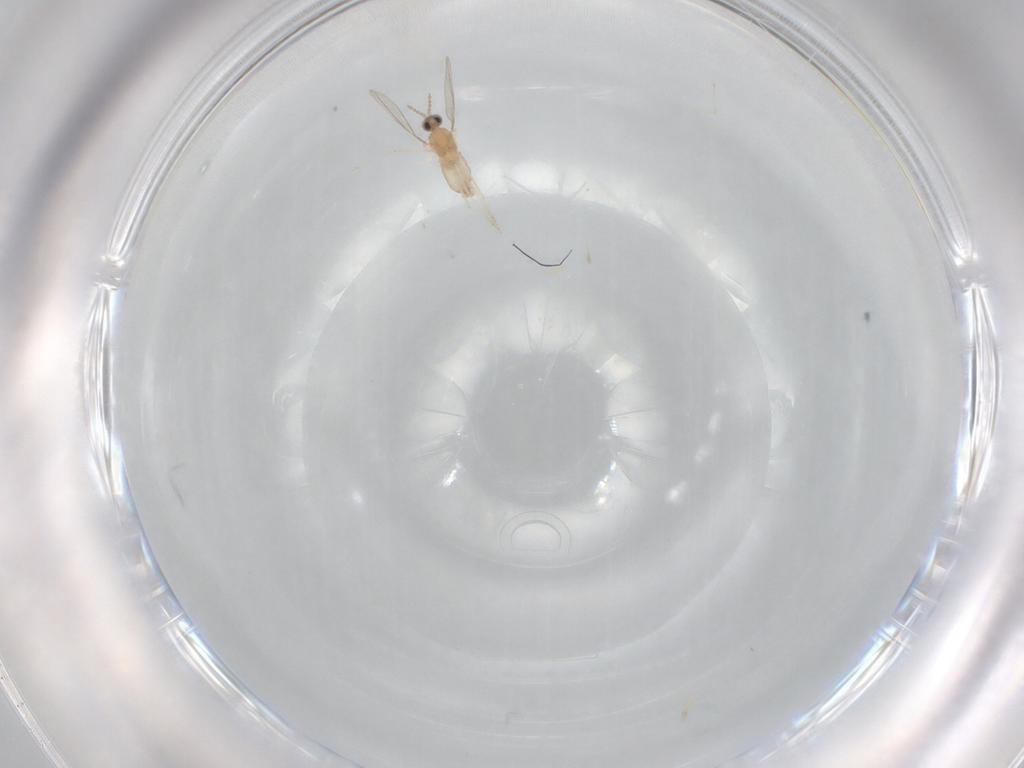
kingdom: Animalia
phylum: Arthropoda
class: Insecta
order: Diptera
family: Cecidomyiidae
